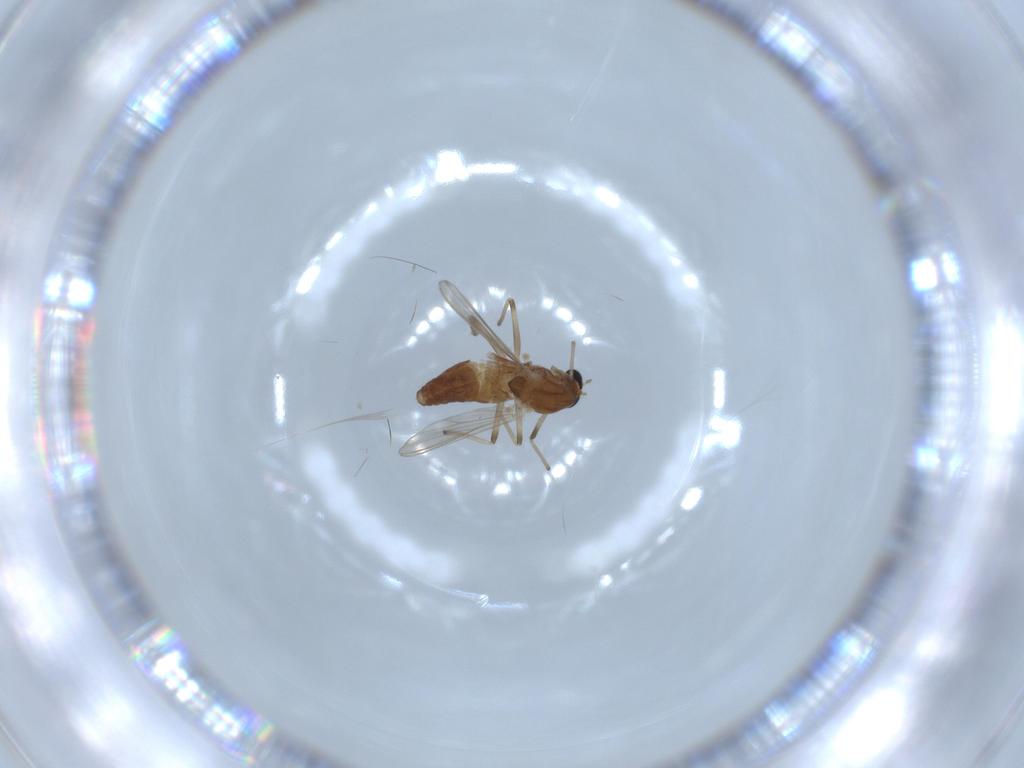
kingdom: Animalia
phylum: Arthropoda
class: Insecta
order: Diptera
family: Chironomidae
